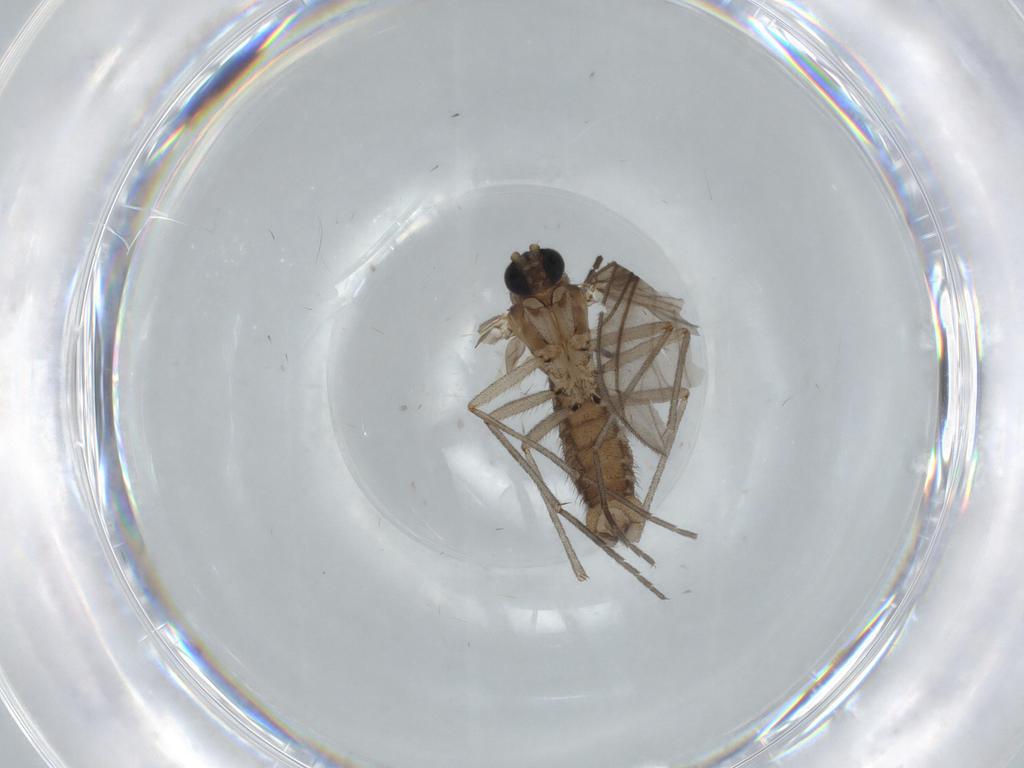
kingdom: Animalia
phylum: Arthropoda
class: Insecta
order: Diptera
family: Sciaridae
